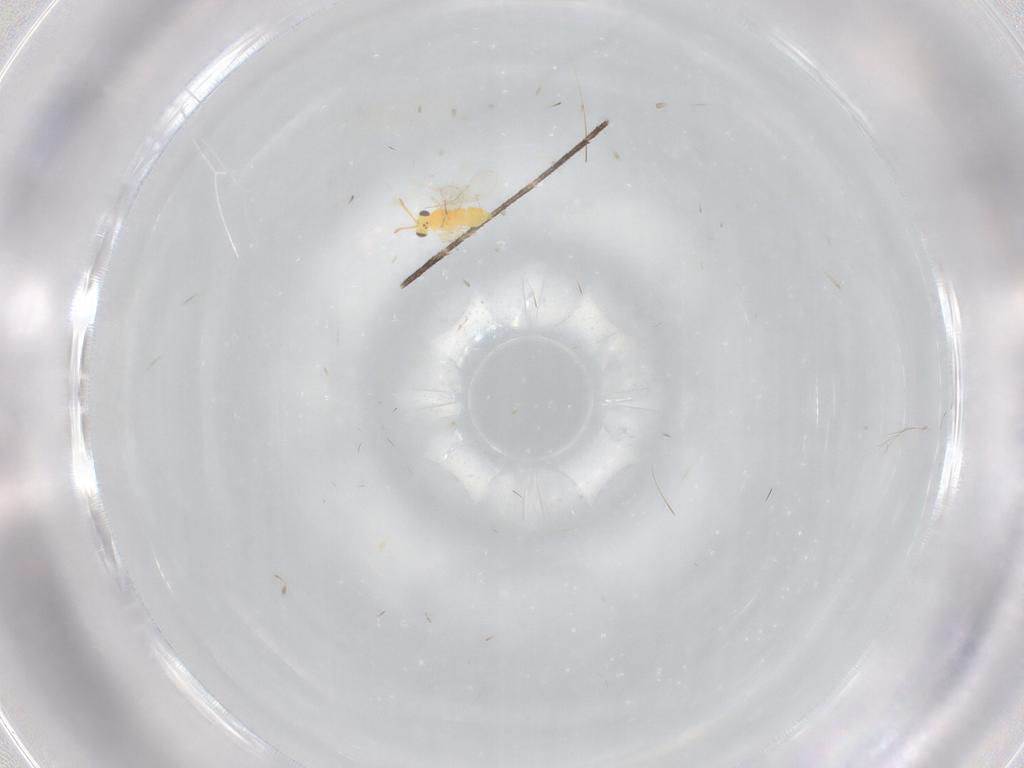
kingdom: Animalia
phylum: Arthropoda
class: Insecta
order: Hymenoptera
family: Aphelinidae
